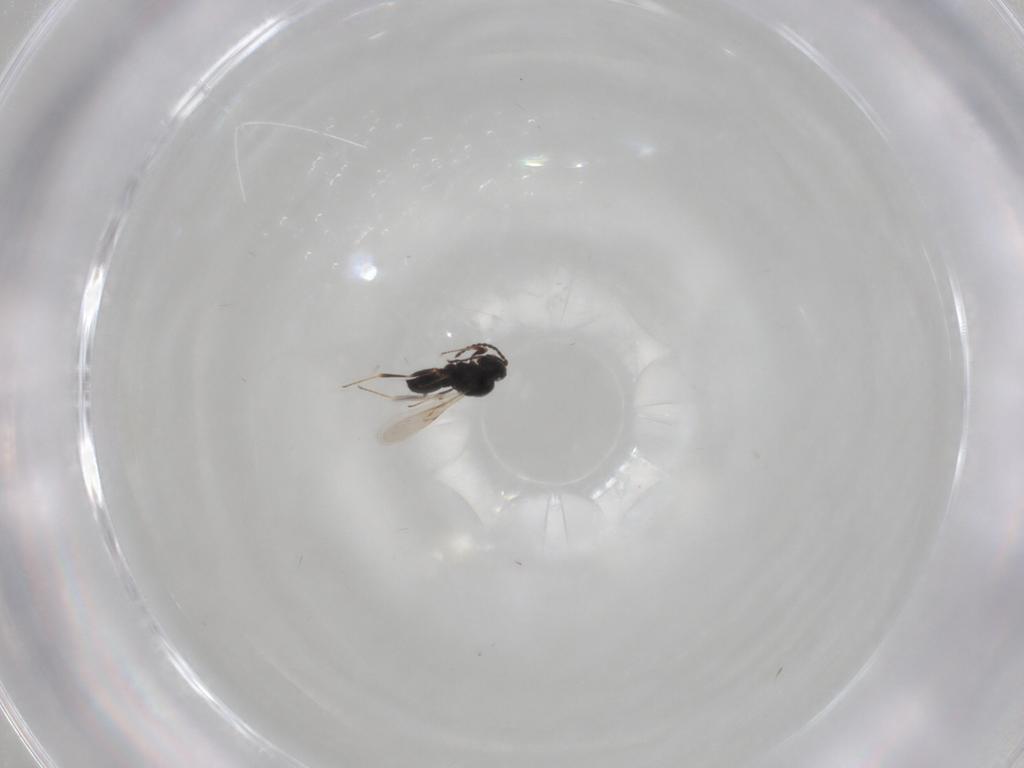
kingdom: Animalia
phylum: Arthropoda
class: Insecta
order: Hymenoptera
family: Scelionidae
